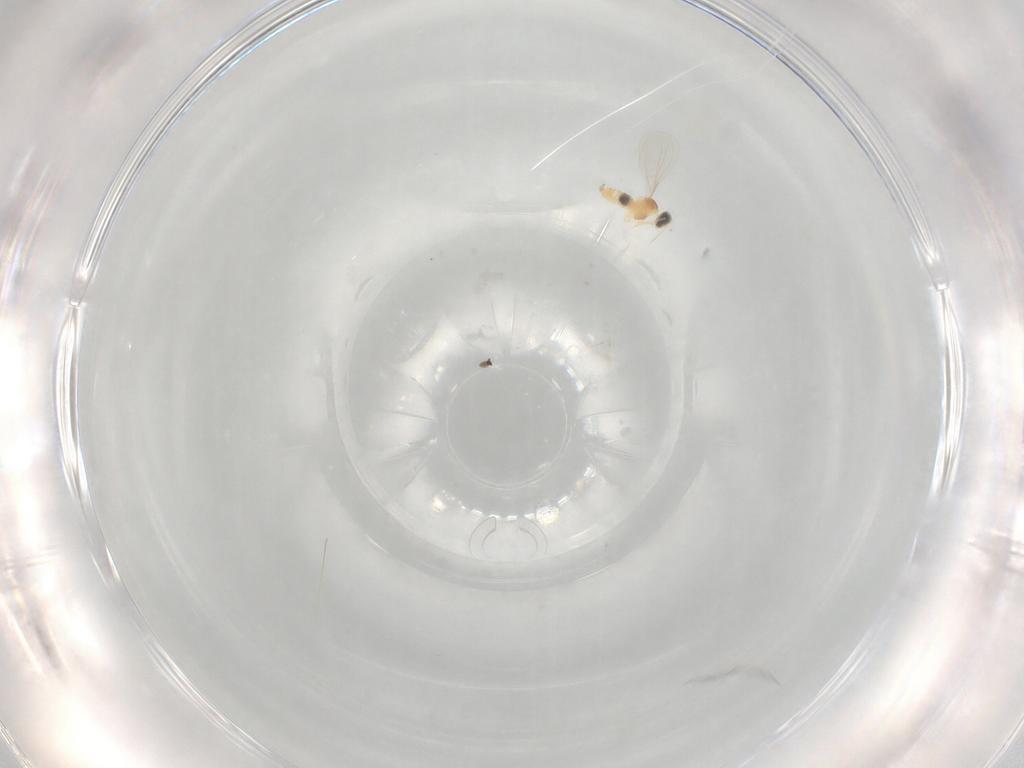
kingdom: Animalia
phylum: Arthropoda
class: Insecta
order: Diptera
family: Cecidomyiidae
